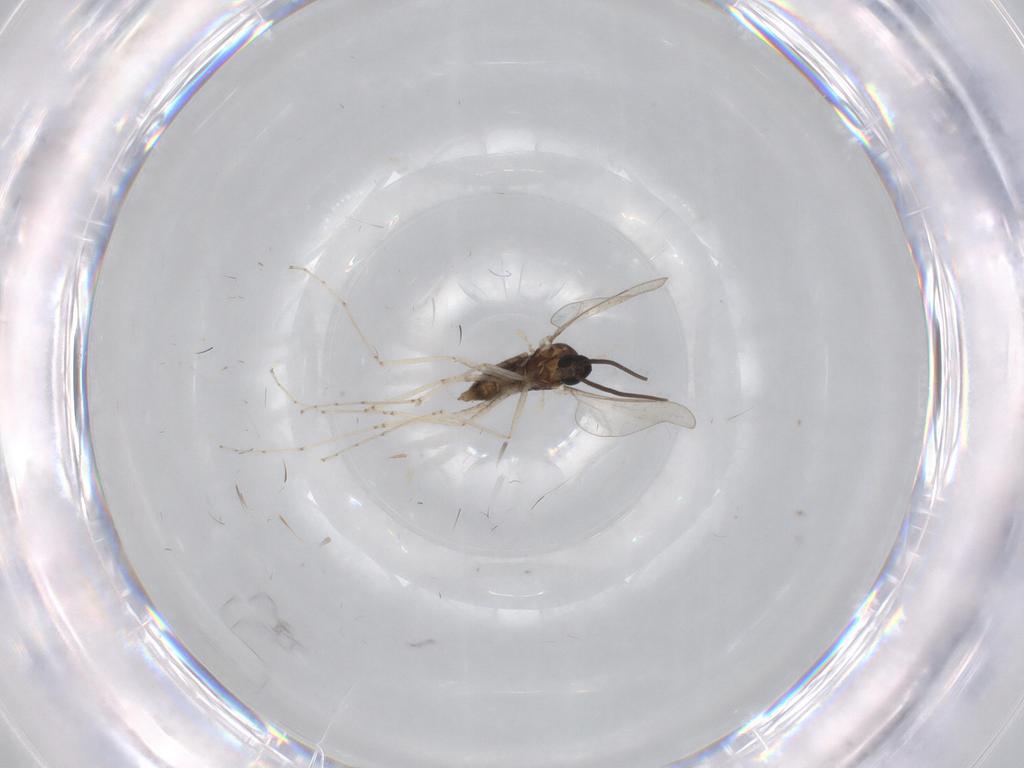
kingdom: Animalia
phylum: Arthropoda
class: Insecta
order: Diptera
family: Cecidomyiidae
